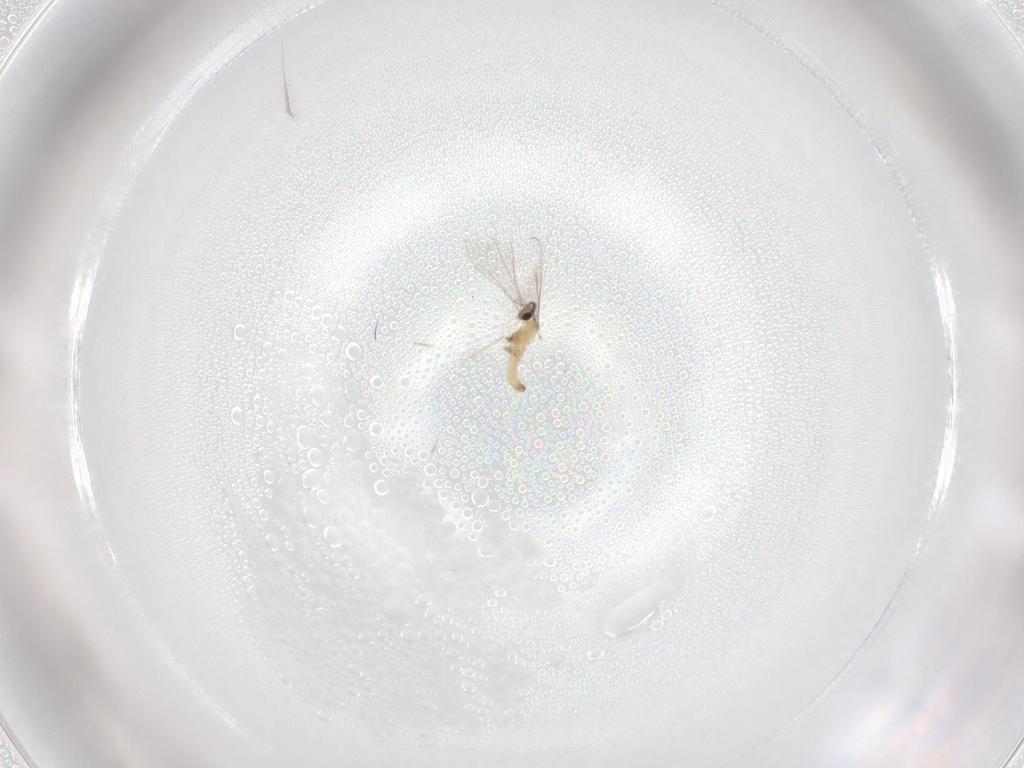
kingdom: Animalia
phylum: Arthropoda
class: Insecta
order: Diptera
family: Cecidomyiidae
